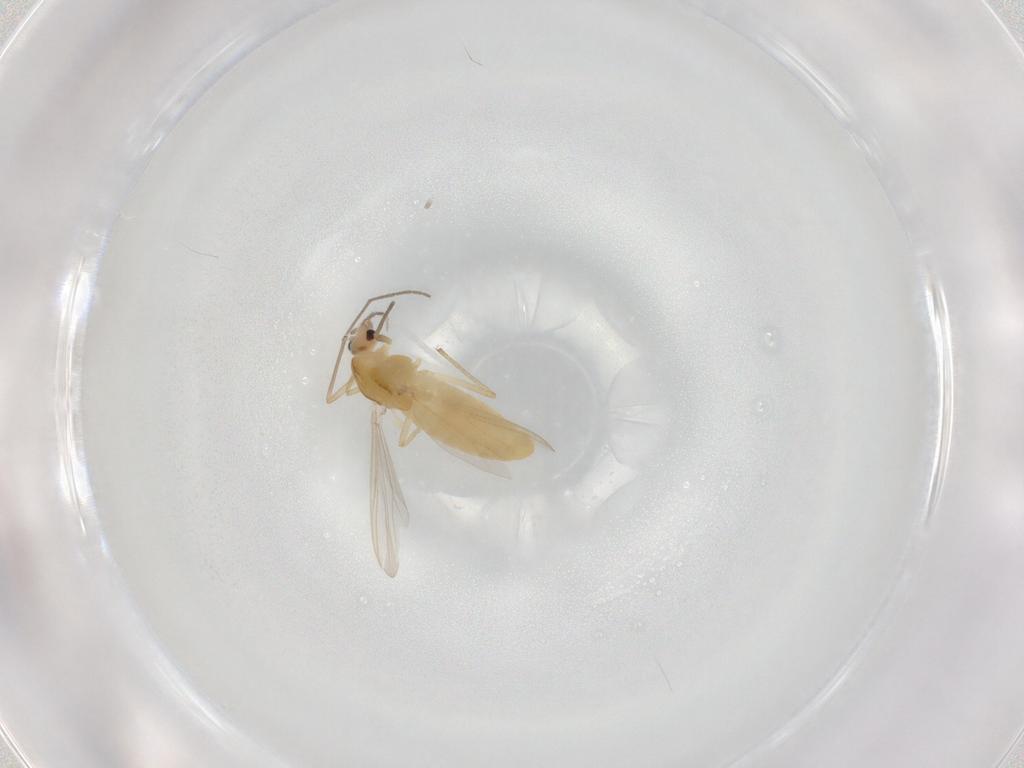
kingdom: Animalia
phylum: Arthropoda
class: Insecta
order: Diptera
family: Chironomidae
